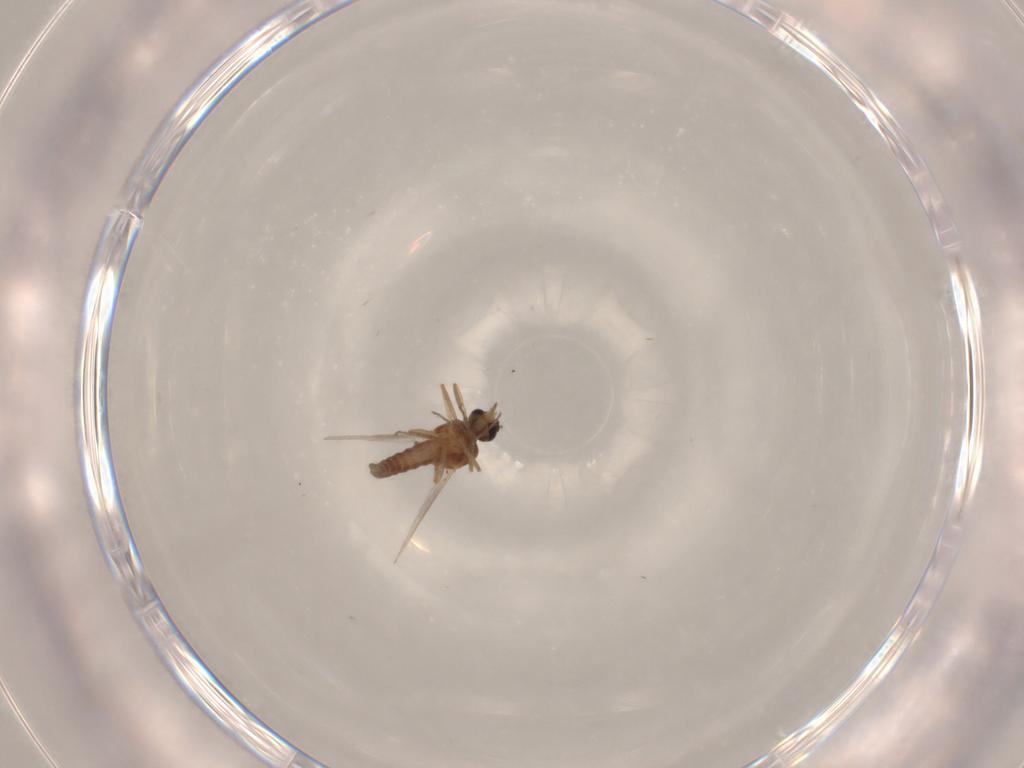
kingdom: Animalia
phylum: Arthropoda
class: Insecta
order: Diptera
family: Ceratopogonidae
